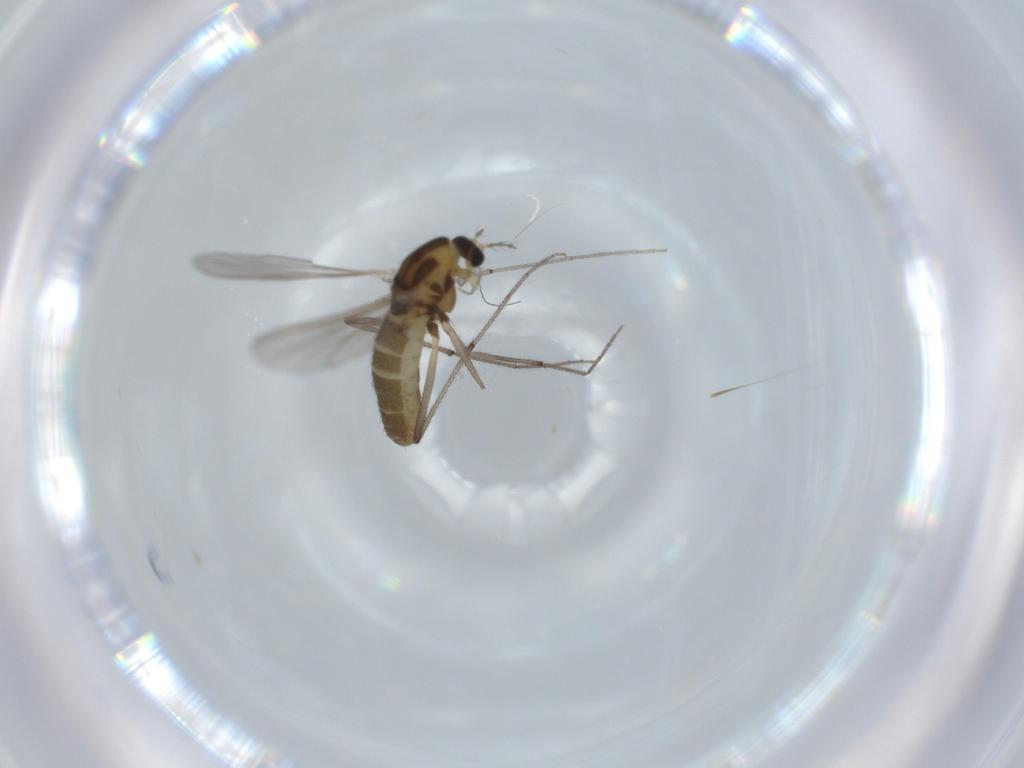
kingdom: Animalia
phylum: Arthropoda
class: Insecta
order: Diptera
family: Chironomidae
